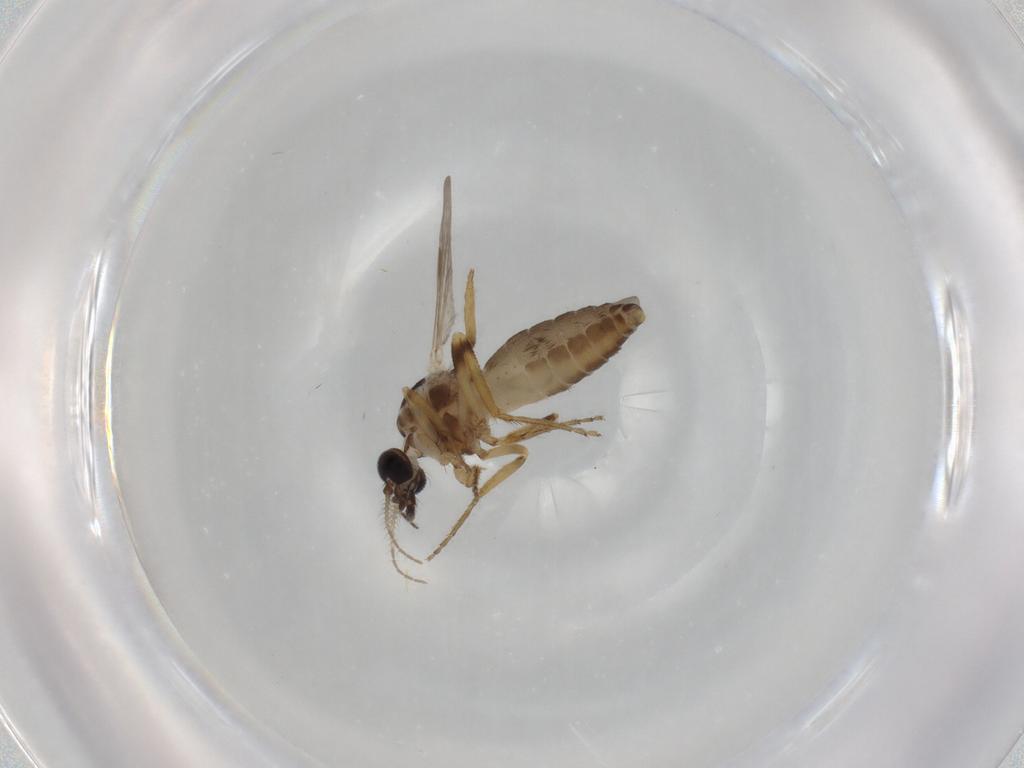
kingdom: Animalia
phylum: Arthropoda
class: Insecta
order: Diptera
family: Ceratopogonidae
